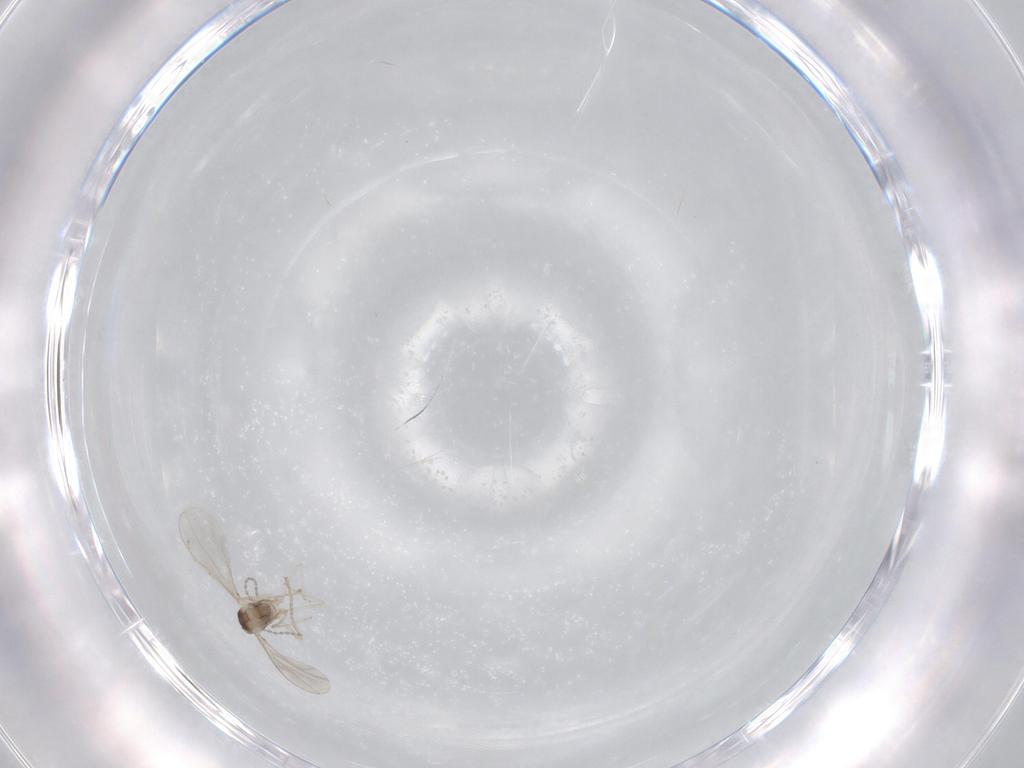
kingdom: Animalia
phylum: Arthropoda
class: Insecta
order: Diptera
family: Cecidomyiidae
